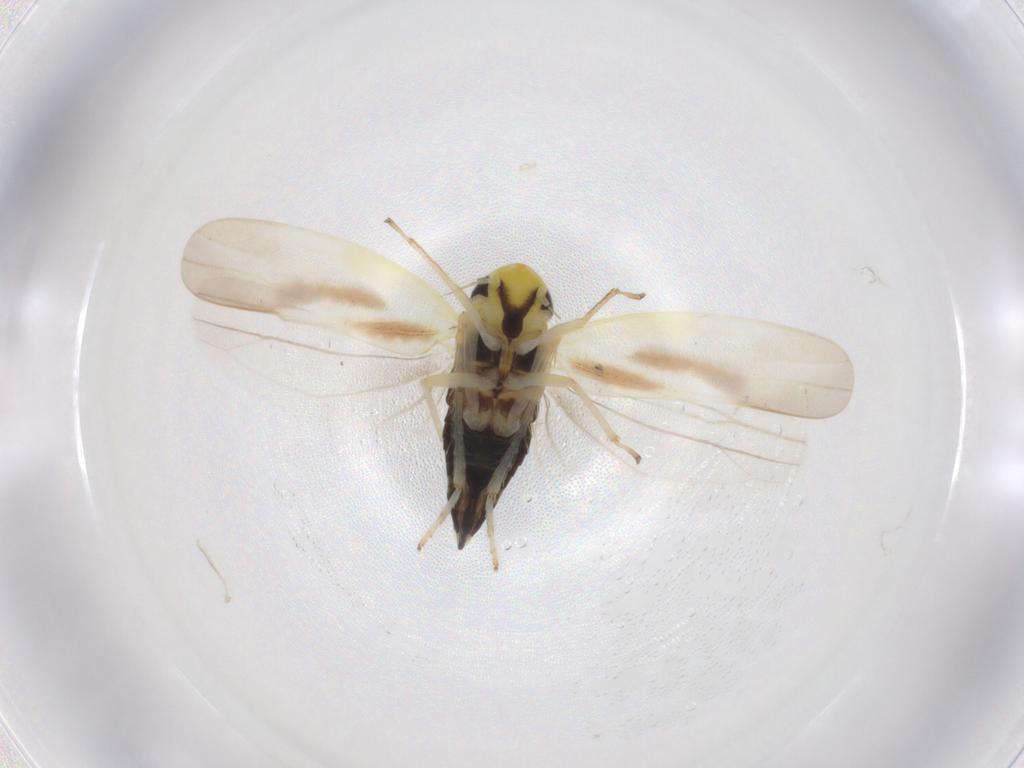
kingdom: Animalia
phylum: Arthropoda
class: Insecta
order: Hemiptera
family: Cicadellidae
